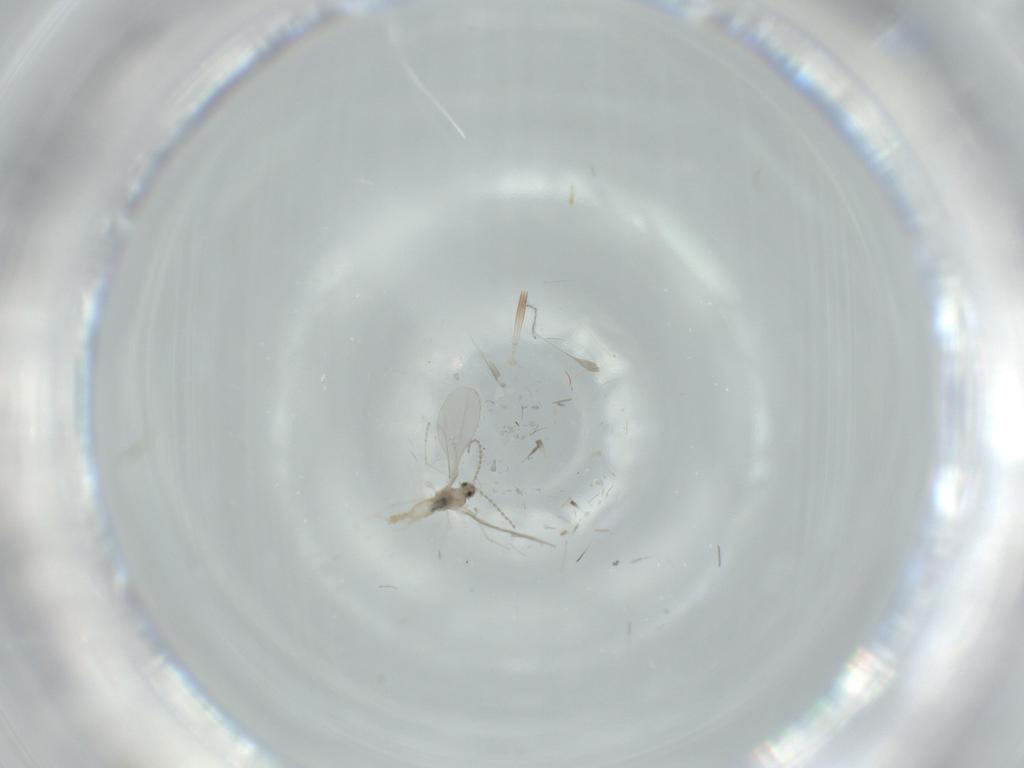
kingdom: Animalia
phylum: Arthropoda
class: Insecta
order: Diptera
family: Cecidomyiidae
